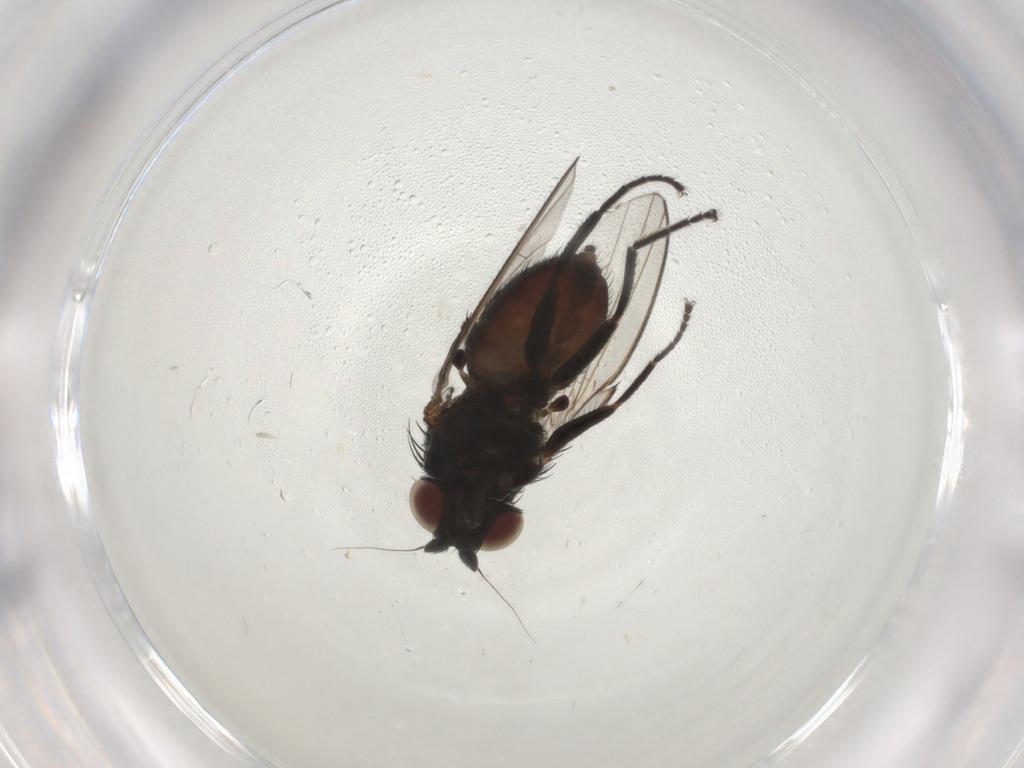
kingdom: Animalia
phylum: Arthropoda
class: Insecta
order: Diptera
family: Milichiidae
